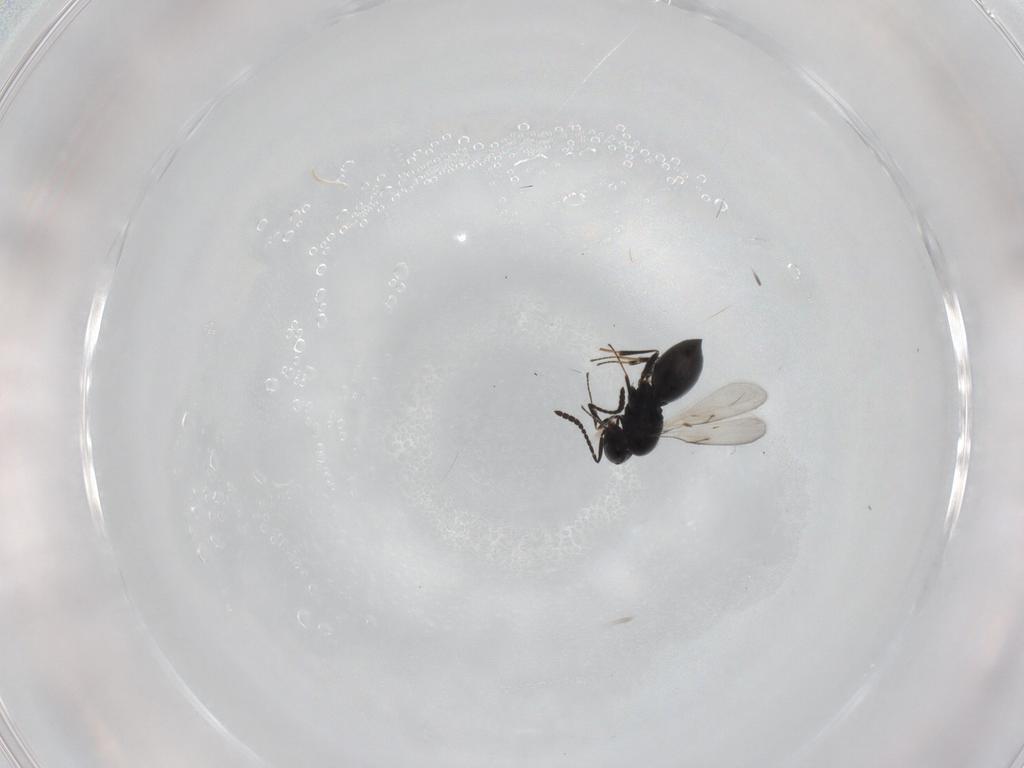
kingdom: Animalia
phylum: Arthropoda
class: Insecta
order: Hymenoptera
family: Scelionidae
